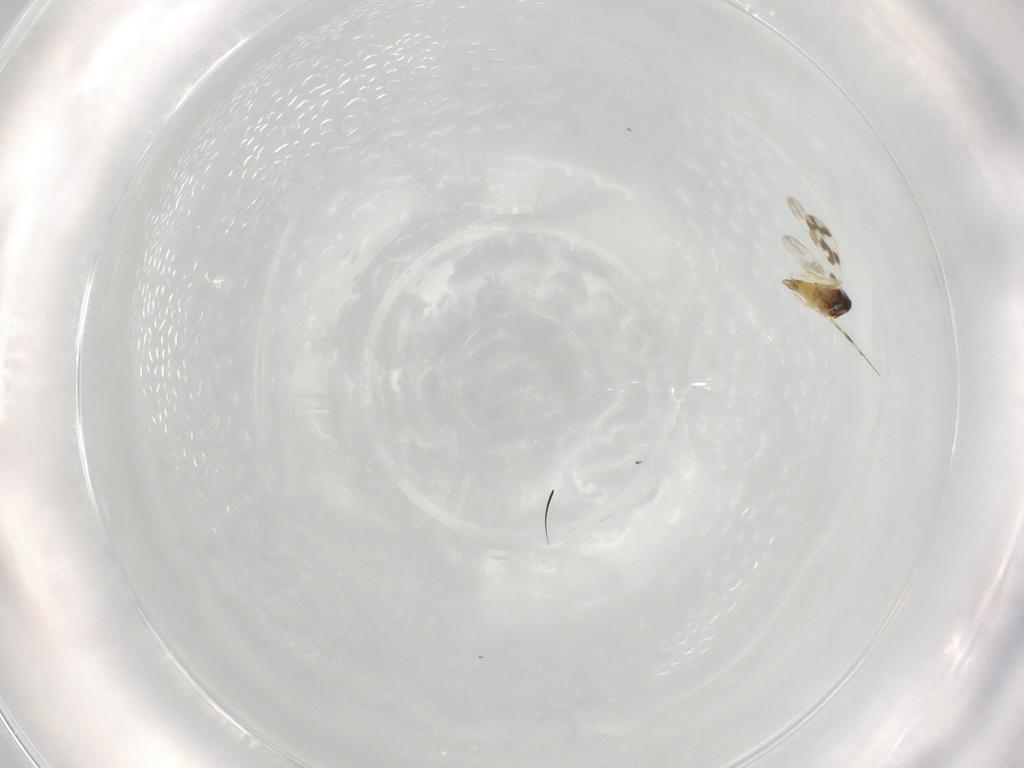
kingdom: Animalia
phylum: Arthropoda
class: Insecta
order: Hemiptera
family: Aleyrodidae
